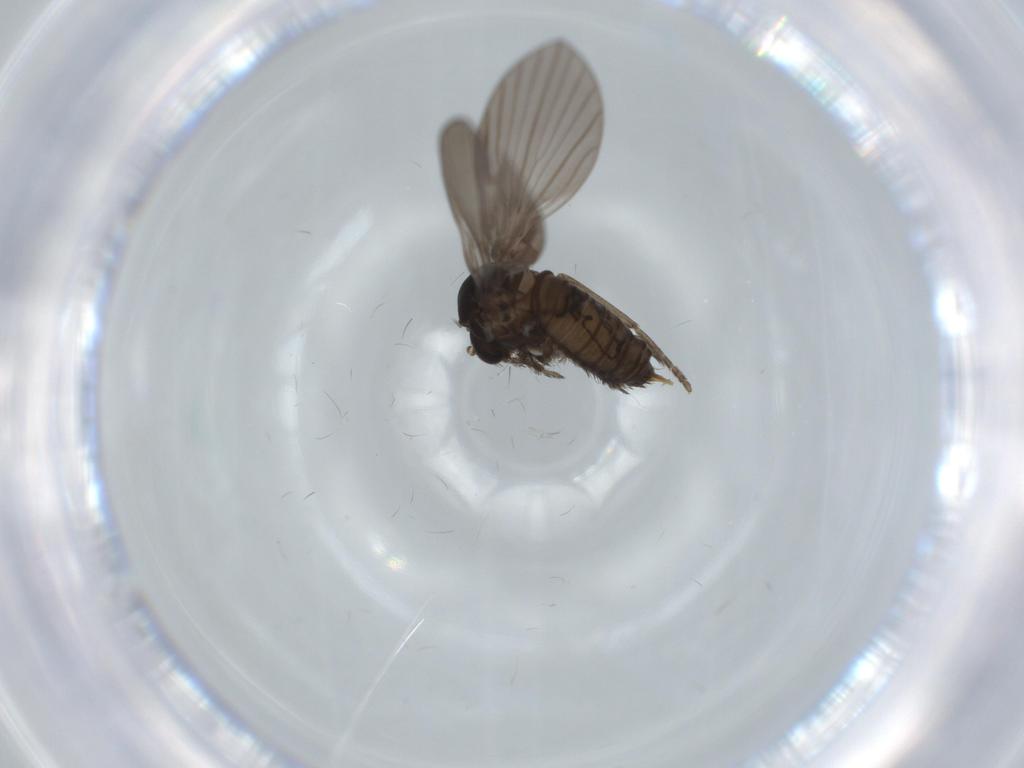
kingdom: Animalia
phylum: Arthropoda
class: Insecta
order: Diptera
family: Psychodidae
